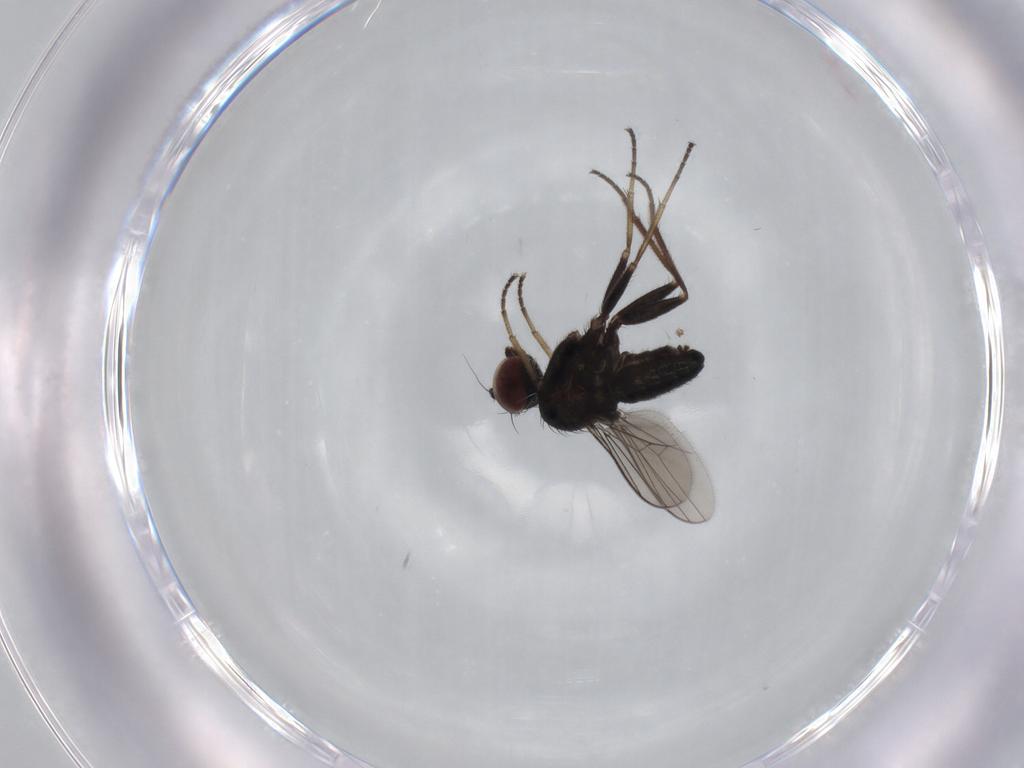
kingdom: Animalia
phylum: Arthropoda
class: Insecta
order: Diptera
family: Dolichopodidae
